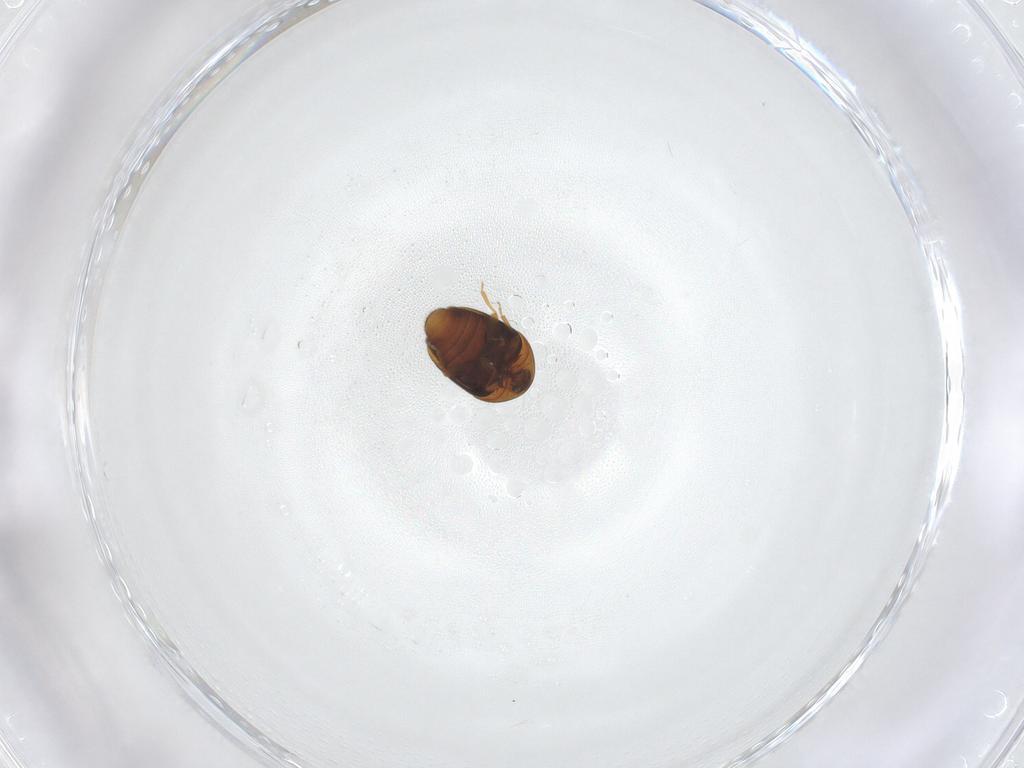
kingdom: Animalia
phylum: Arthropoda
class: Insecta
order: Coleoptera
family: Corylophidae
